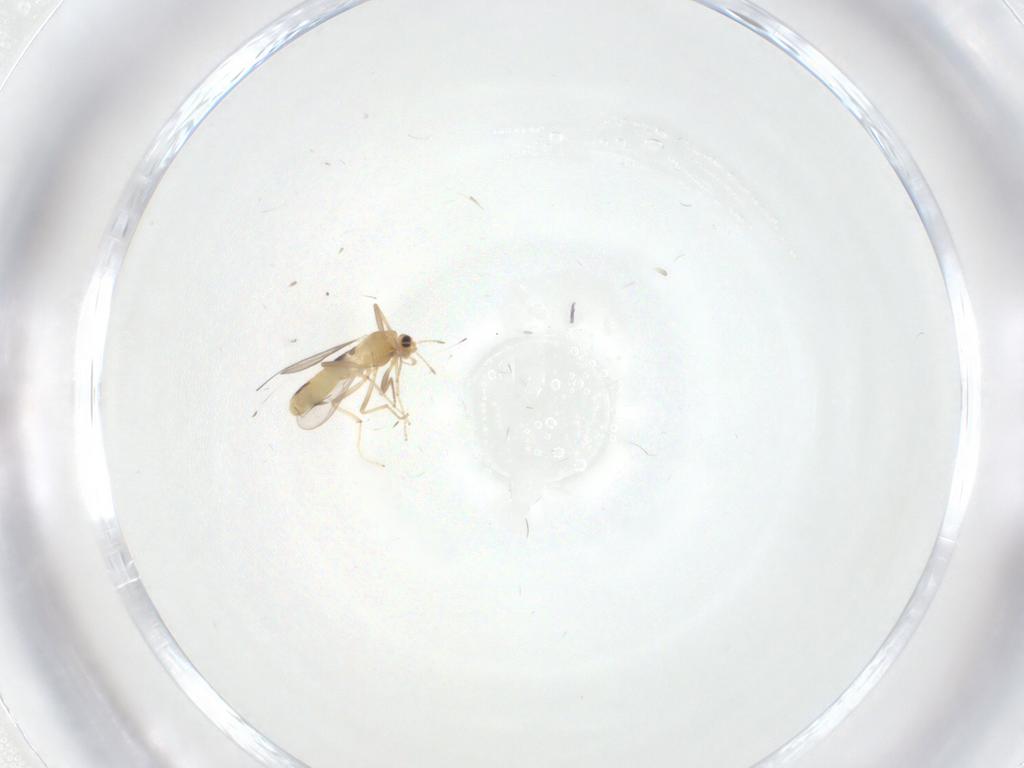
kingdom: Animalia
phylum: Arthropoda
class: Insecta
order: Diptera
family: Chironomidae
